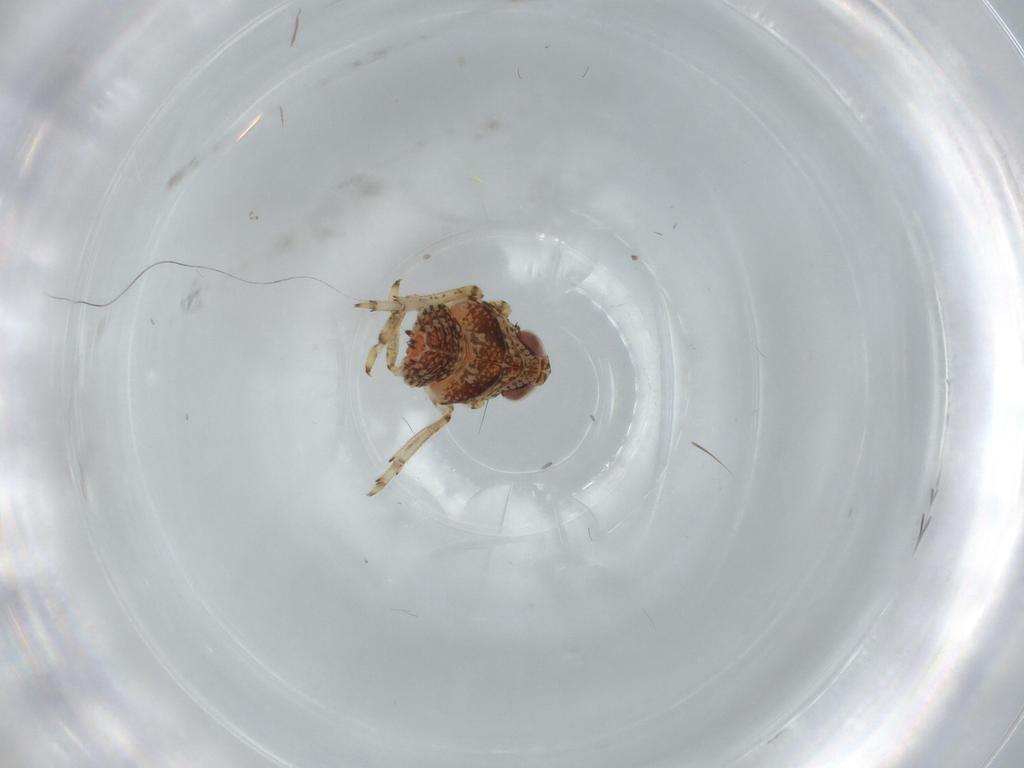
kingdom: Animalia
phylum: Arthropoda
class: Insecta
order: Hemiptera
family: Issidae
